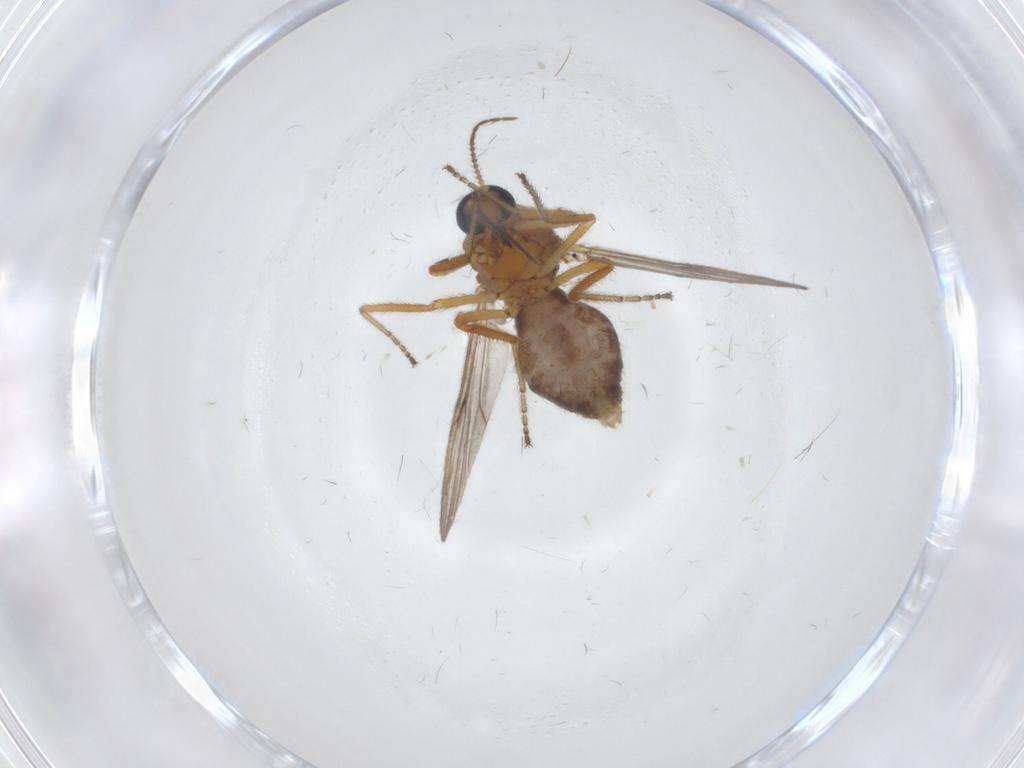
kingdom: Animalia
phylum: Arthropoda
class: Insecta
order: Diptera
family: Ceratopogonidae
